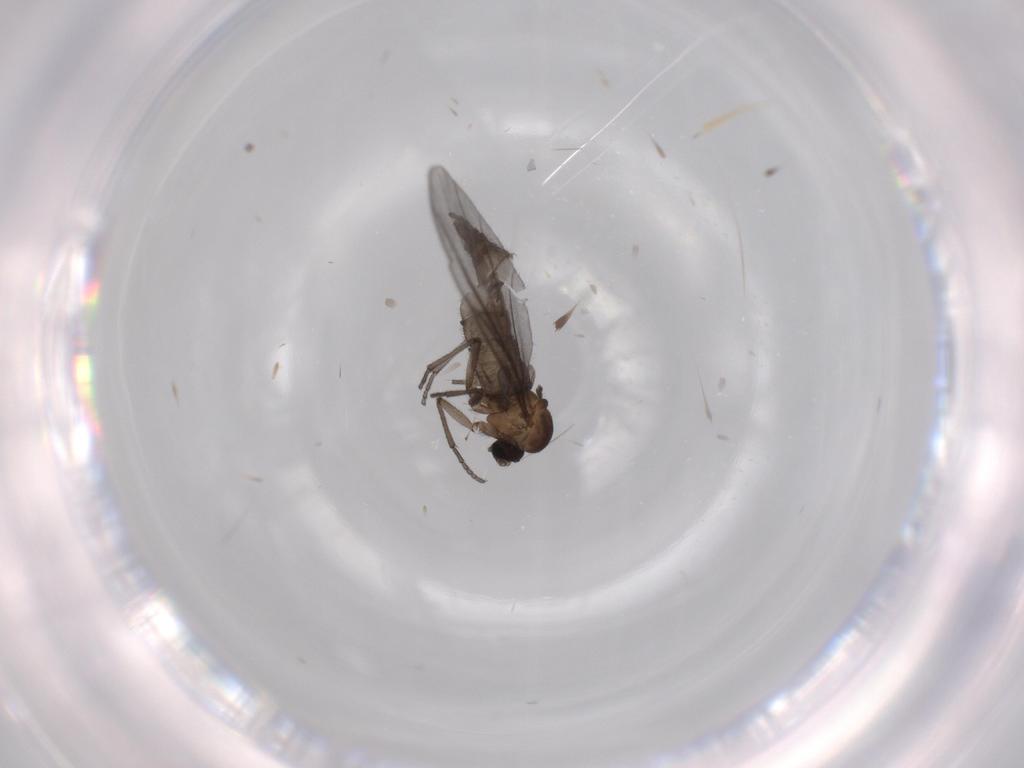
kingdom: Animalia
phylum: Arthropoda
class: Insecta
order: Diptera
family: Sciaridae
